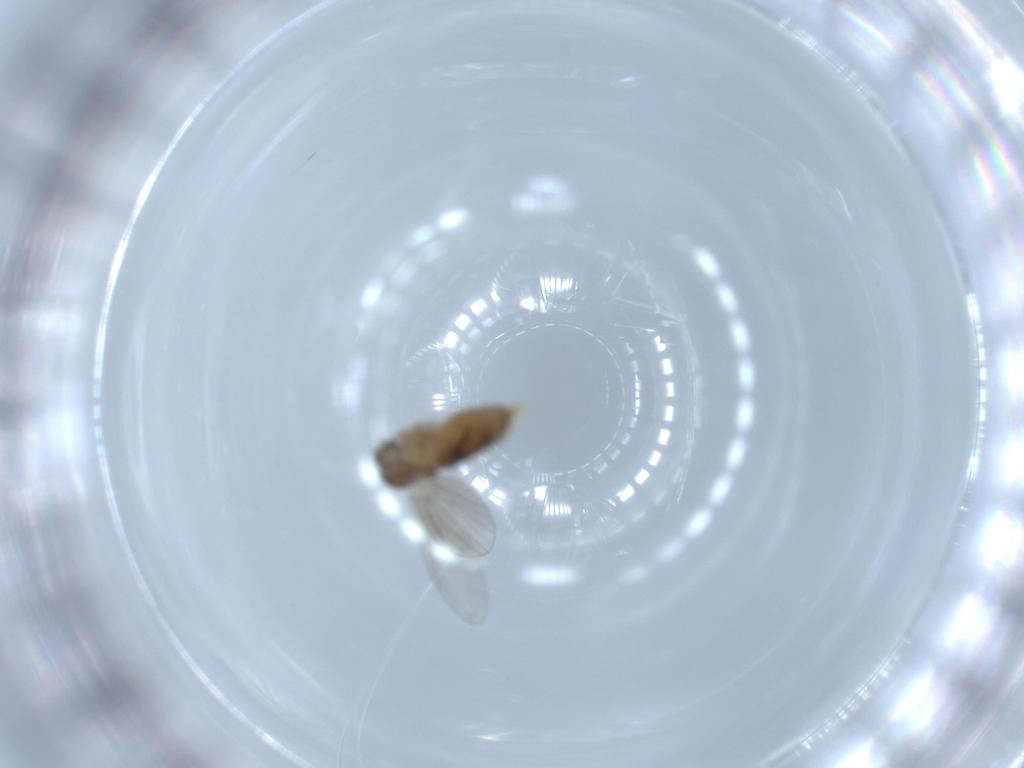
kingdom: Animalia
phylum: Arthropoda
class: Insecta
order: Diptera
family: Psychodidae
